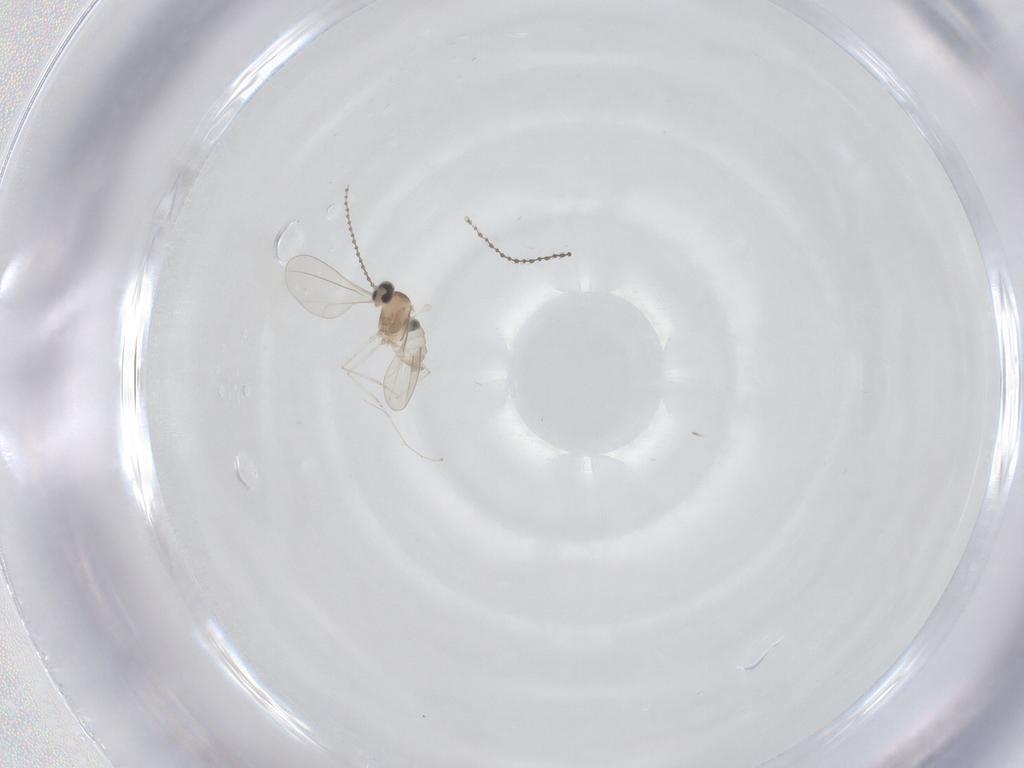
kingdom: Animalia
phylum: Arthropoda
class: Insecta
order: Diptera
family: Cecidomyiidae
